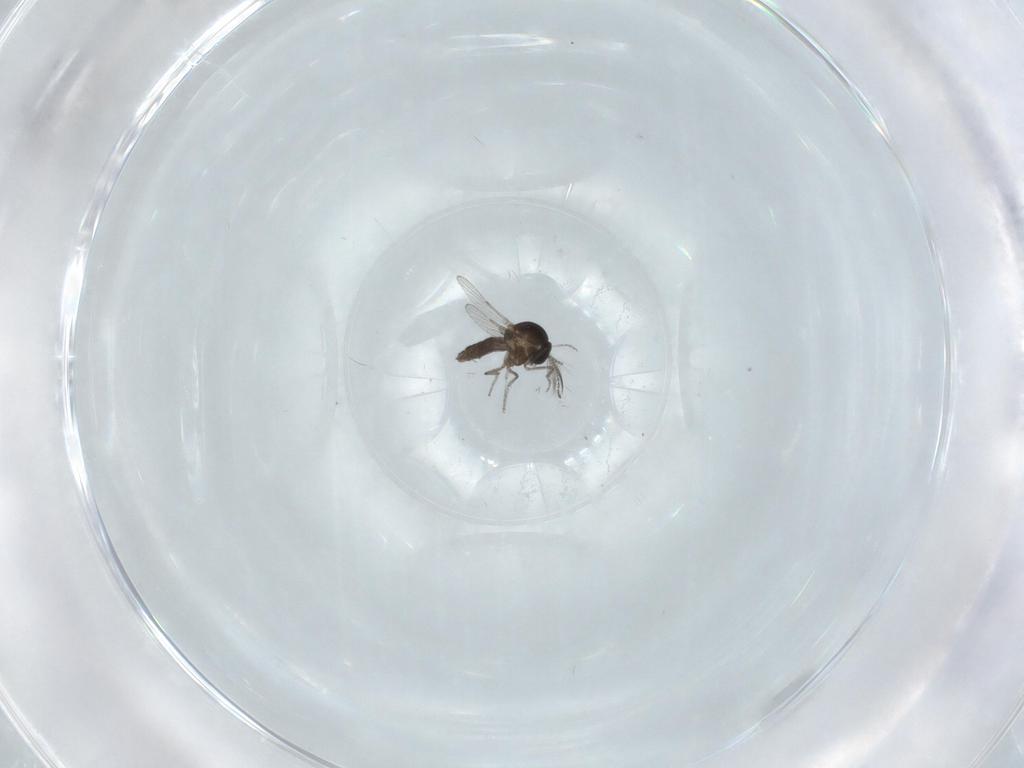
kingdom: Animalia
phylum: Arthropoda
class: Insecta
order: Diptera
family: Ceratopogonidae
